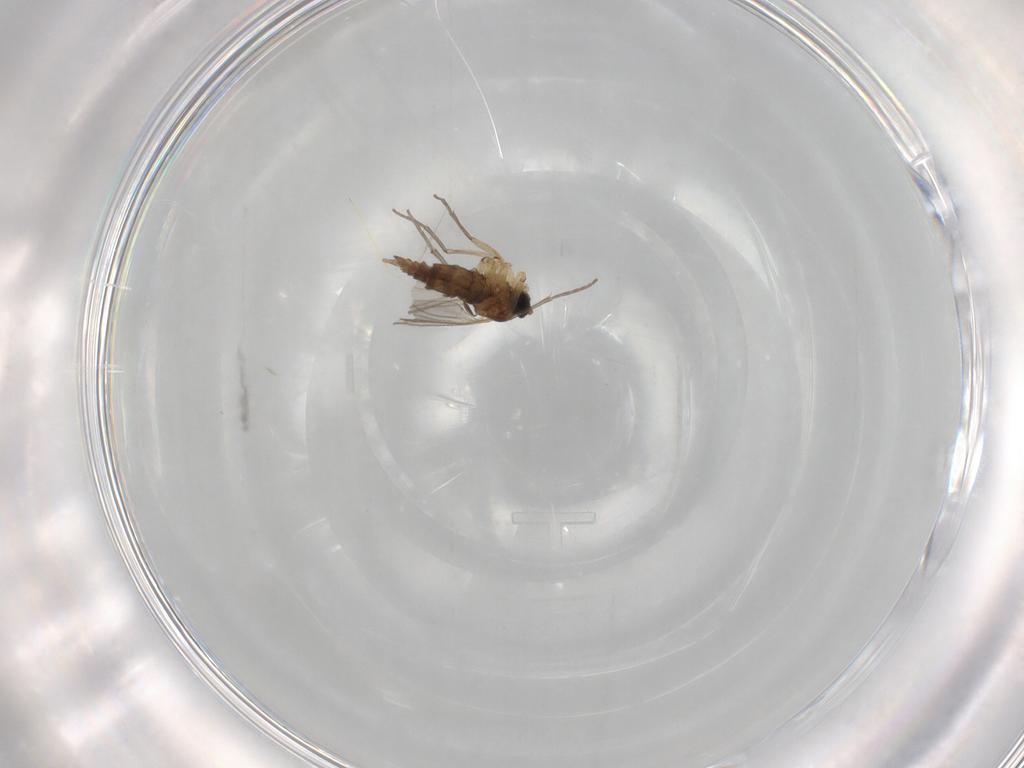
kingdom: Animalia
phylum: Arthropoda
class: Insecta
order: Diptera
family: Sciaridae
